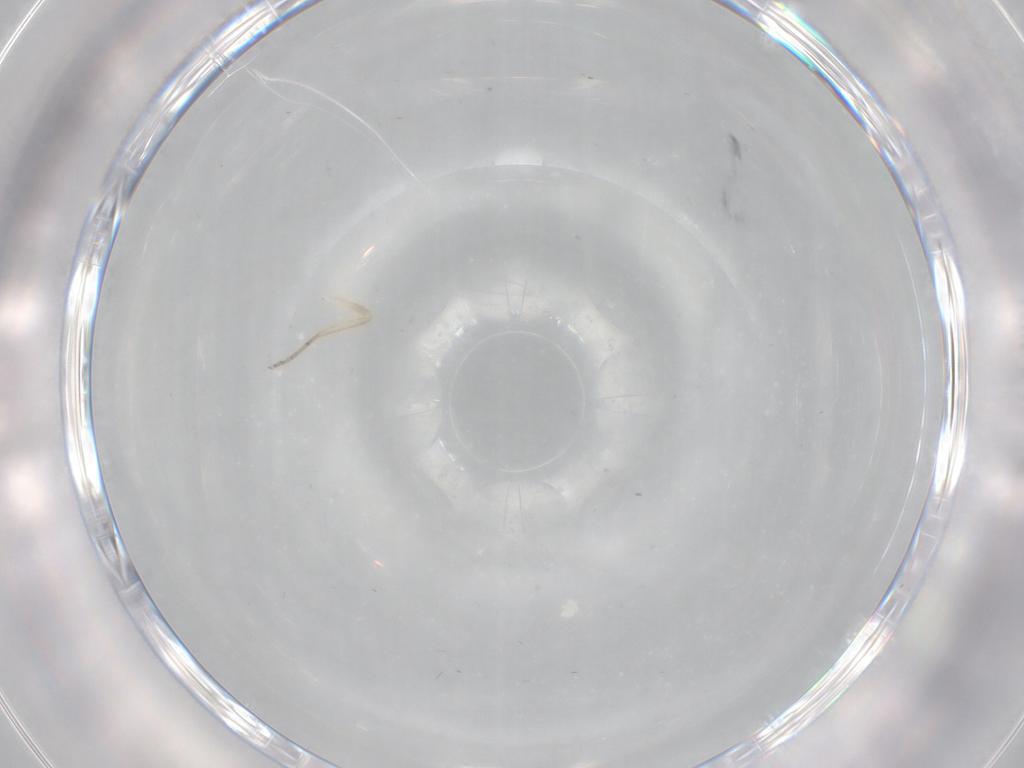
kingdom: Animalia
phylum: Arthropoda
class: Insecta
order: Diptera
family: Ceratopogonidae
